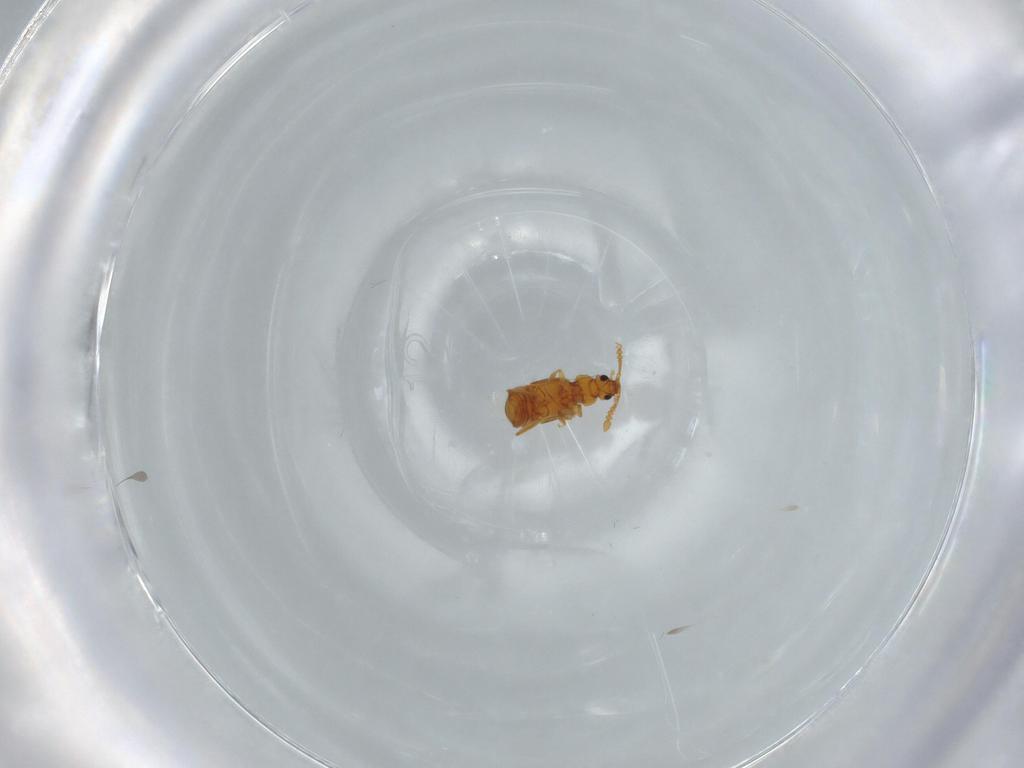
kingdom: Animalia
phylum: Arthropoda
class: Insecta
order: Coleoptera
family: Staphylinidae
